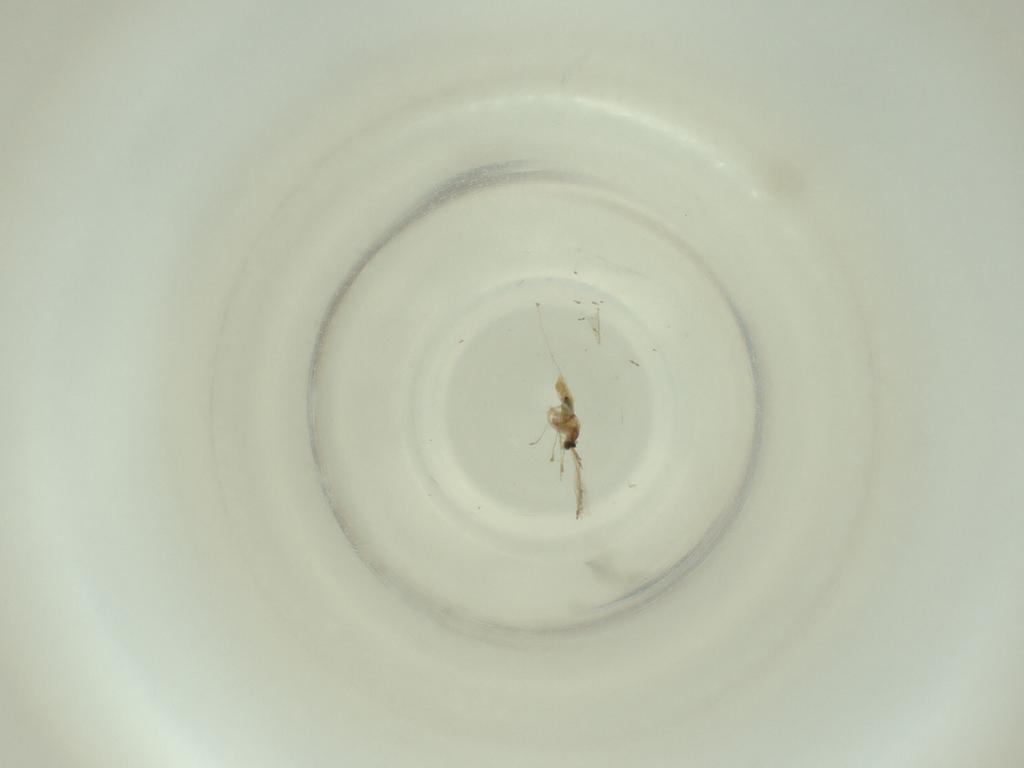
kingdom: Animalia
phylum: Arthropoda
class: Insecta
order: Diptera
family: Cecidomyiidae
